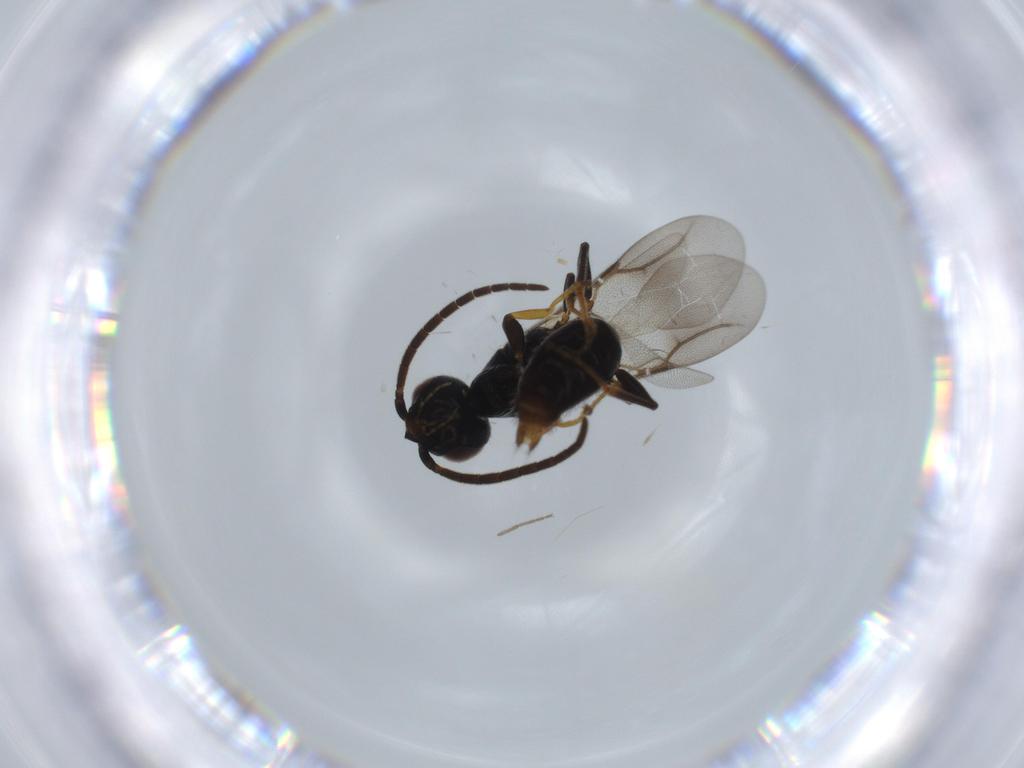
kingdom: Animalia
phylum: Arthropoda
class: Insecta
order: Hymenoptera
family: Bethylidae
